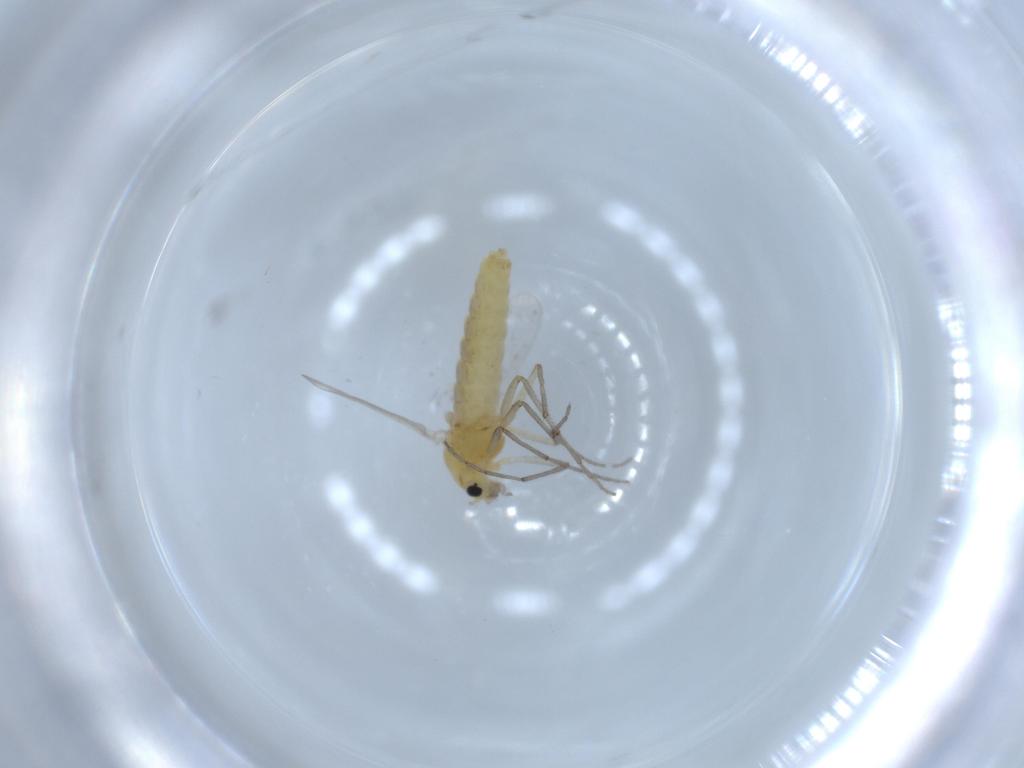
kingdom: Animalia
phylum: Arthropoda
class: Insecta
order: Diptera
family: Chironomidae
